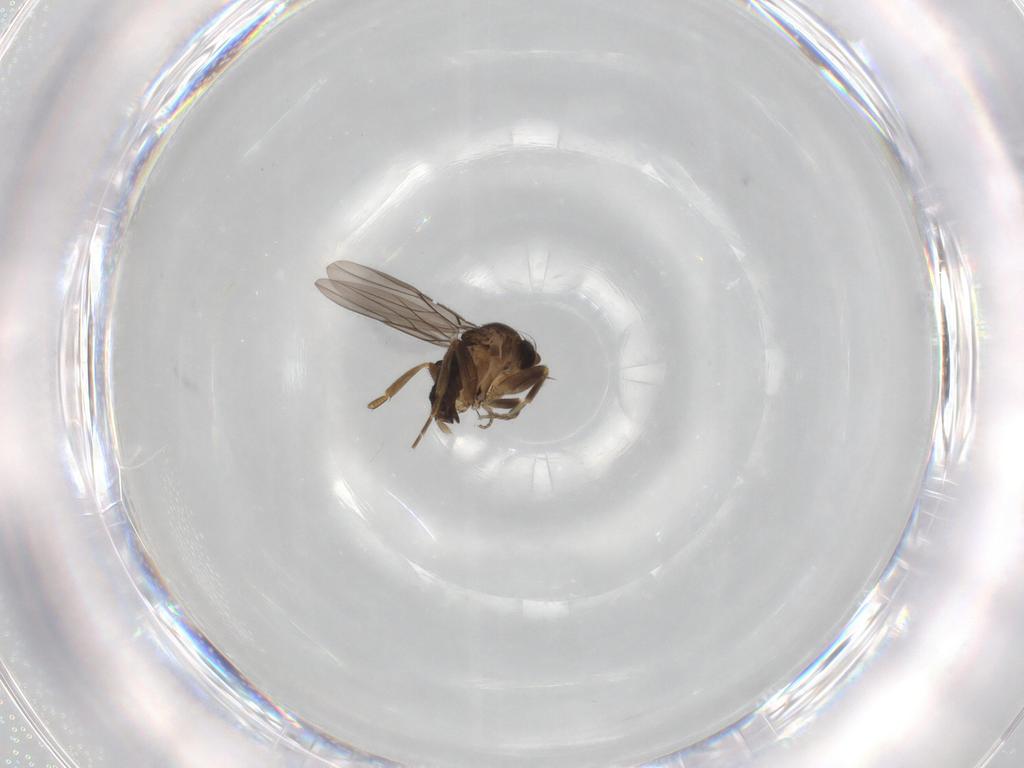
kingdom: Animalia
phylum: Arthropoda
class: Insecta
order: Diptera
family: Phoridae
